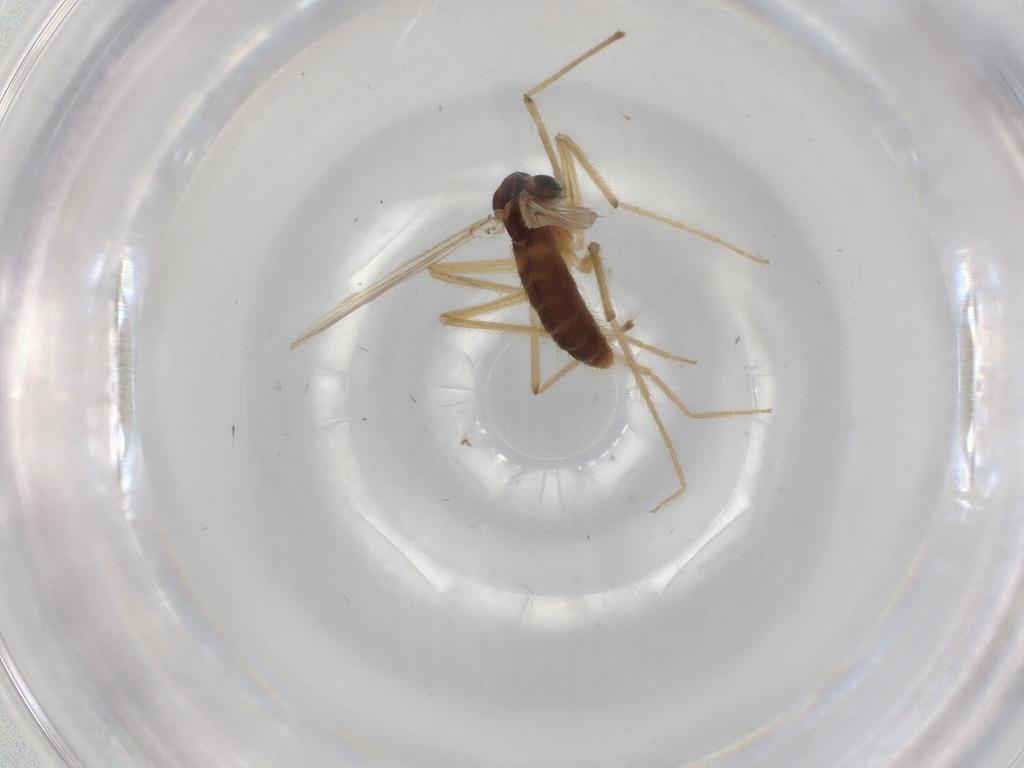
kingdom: Animalia
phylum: Arthropoda
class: Insecta
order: Diptera
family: Chironomidae
